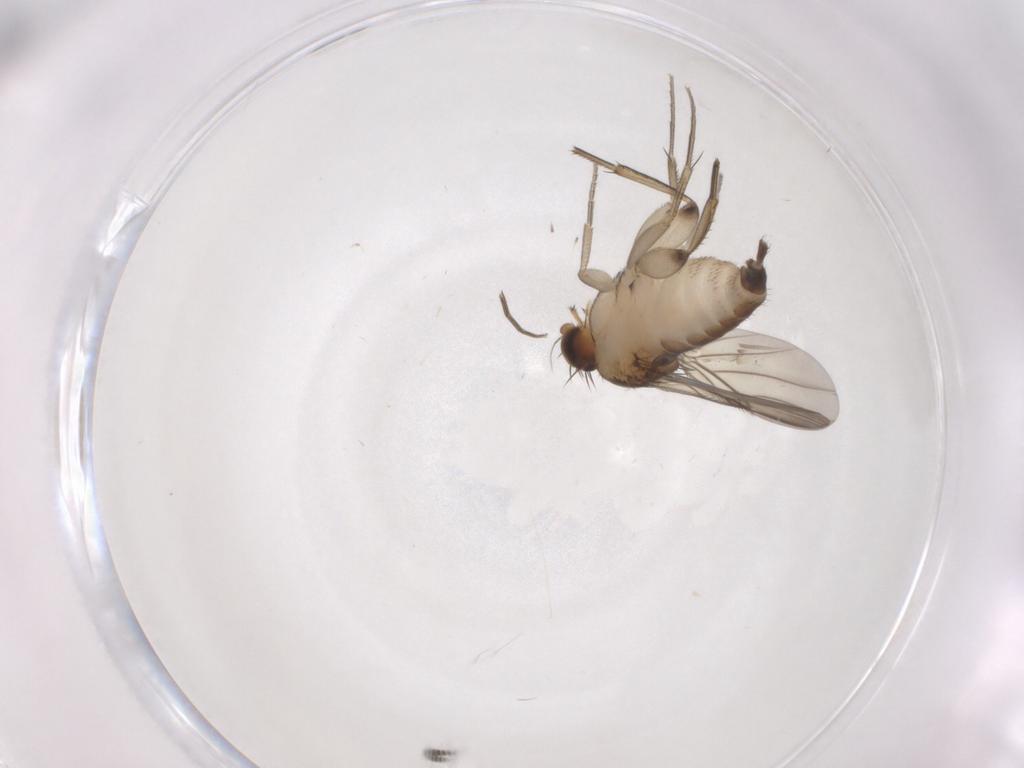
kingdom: Animalia
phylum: Arthropoda
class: Insecta
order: Diptera
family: Phoridae
